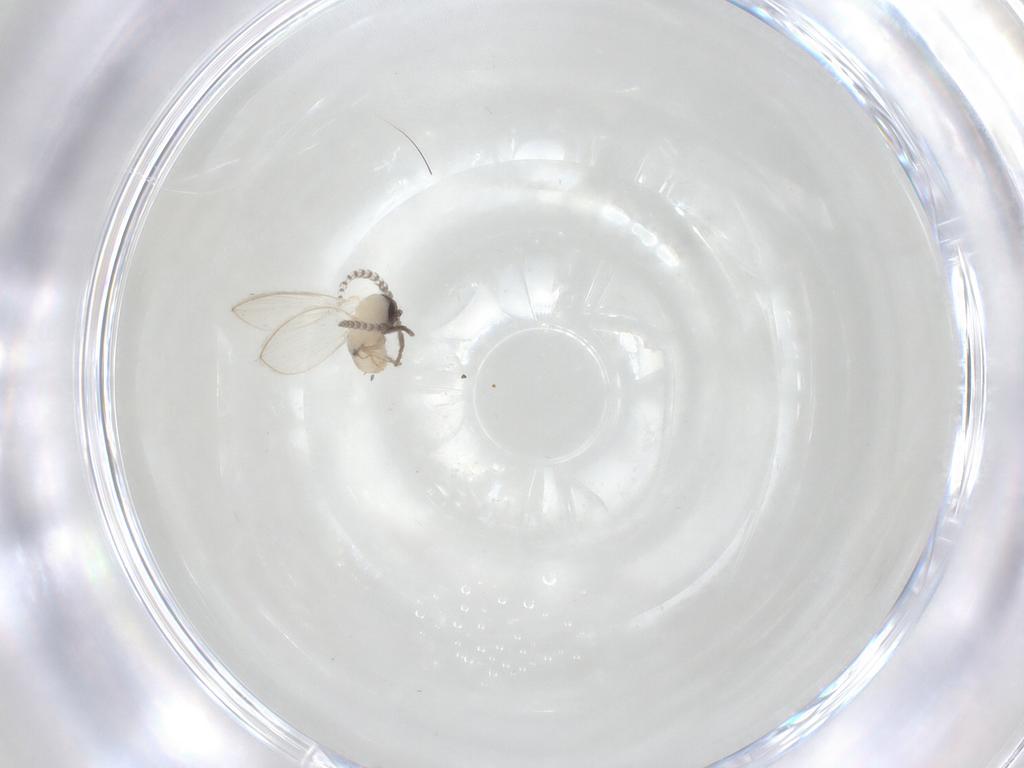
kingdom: Animalia
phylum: Arthropoda
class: Insecta
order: Diptera
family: Psychodidae
